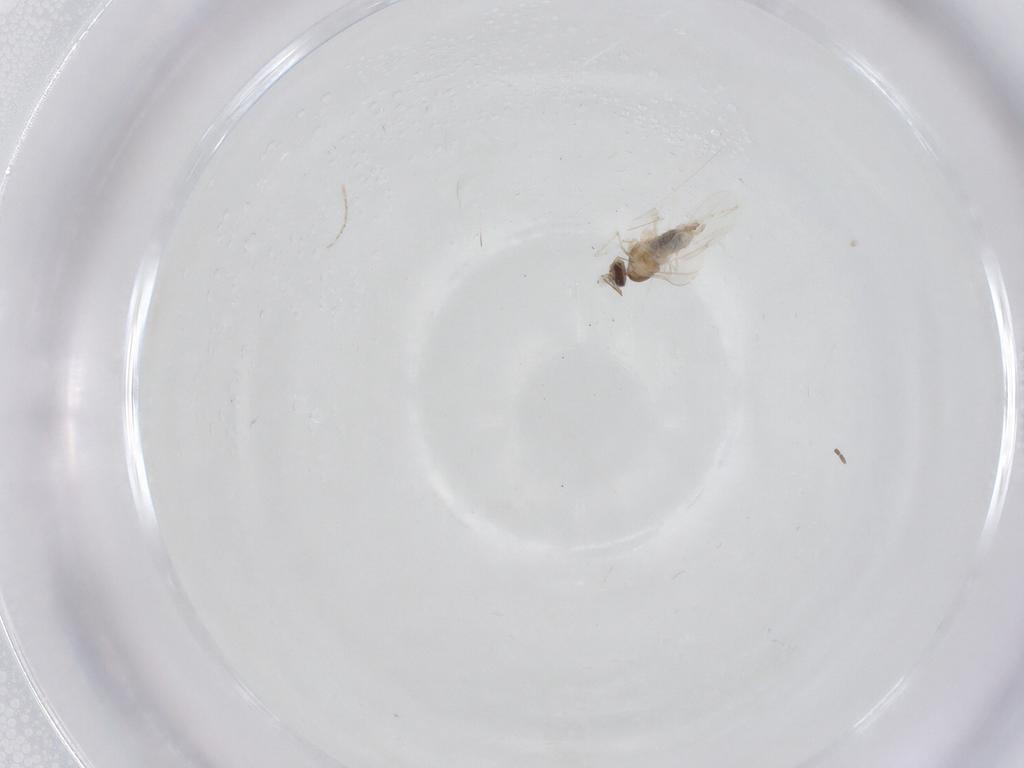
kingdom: Animalia
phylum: Arthropoda
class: Insecta
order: Diptera
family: Cecidomyiidae
